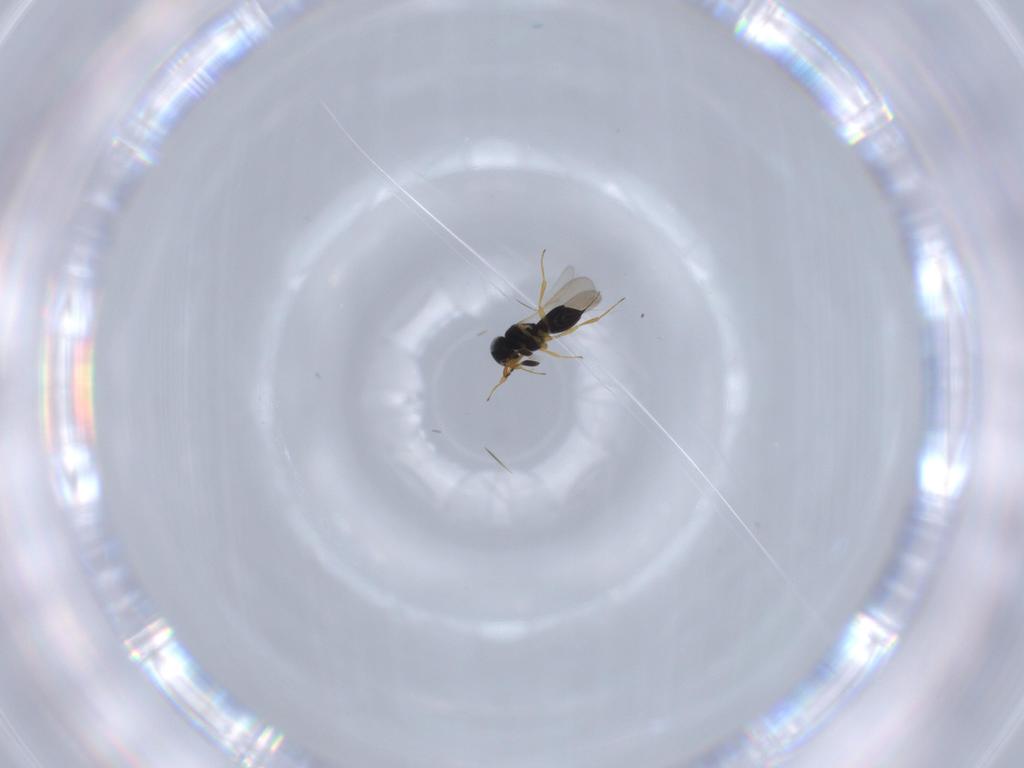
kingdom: Animalia
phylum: Arthropoda
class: Insecta
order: Hymenoptera
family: Scelionidae
